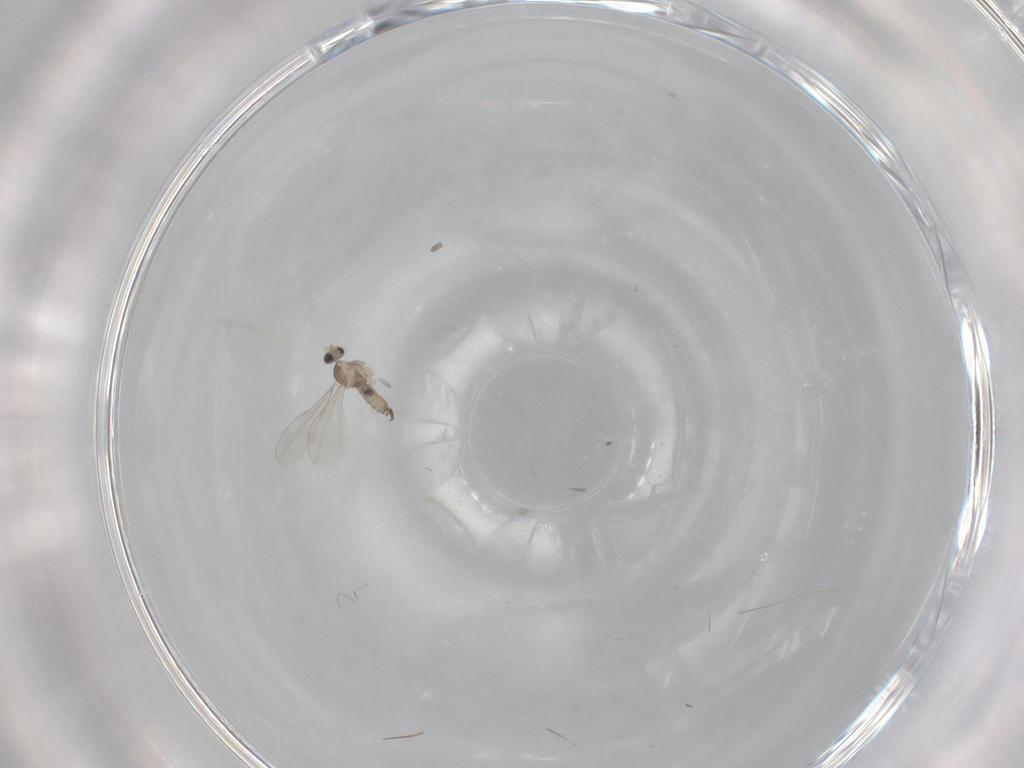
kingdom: Animalia
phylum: Arthropoda
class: Insecta
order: Diptera
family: Cecidomyiidae
